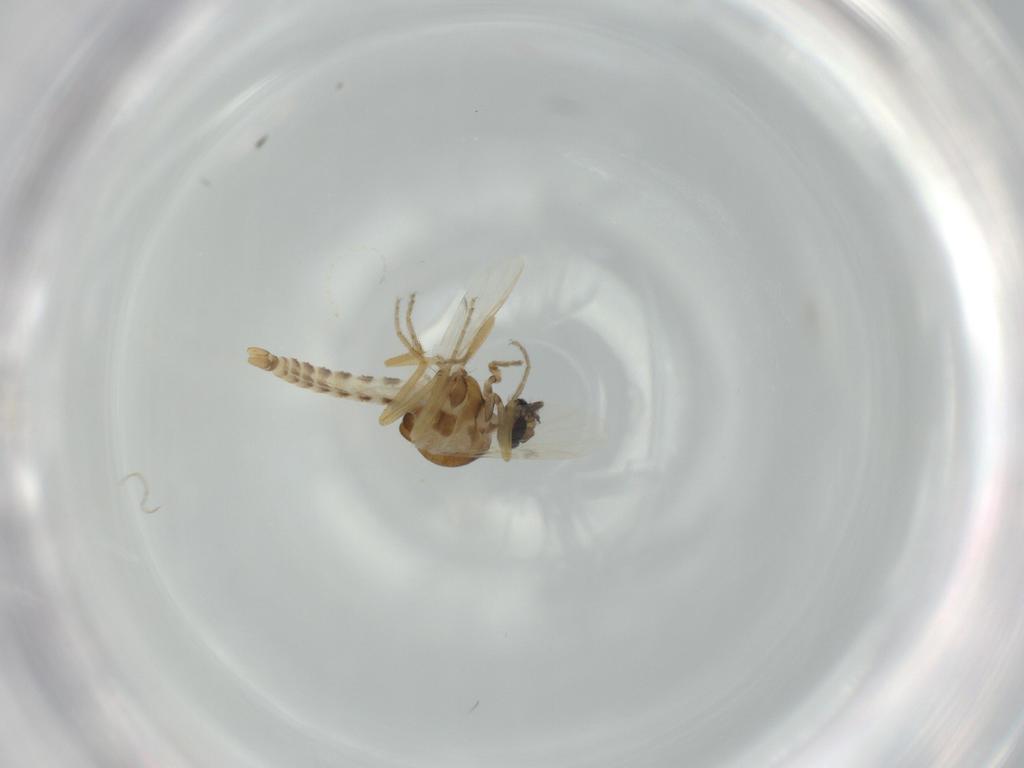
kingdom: Animalia
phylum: Arthropoda
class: Insecta
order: Diptera
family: Cecidomyiidae
